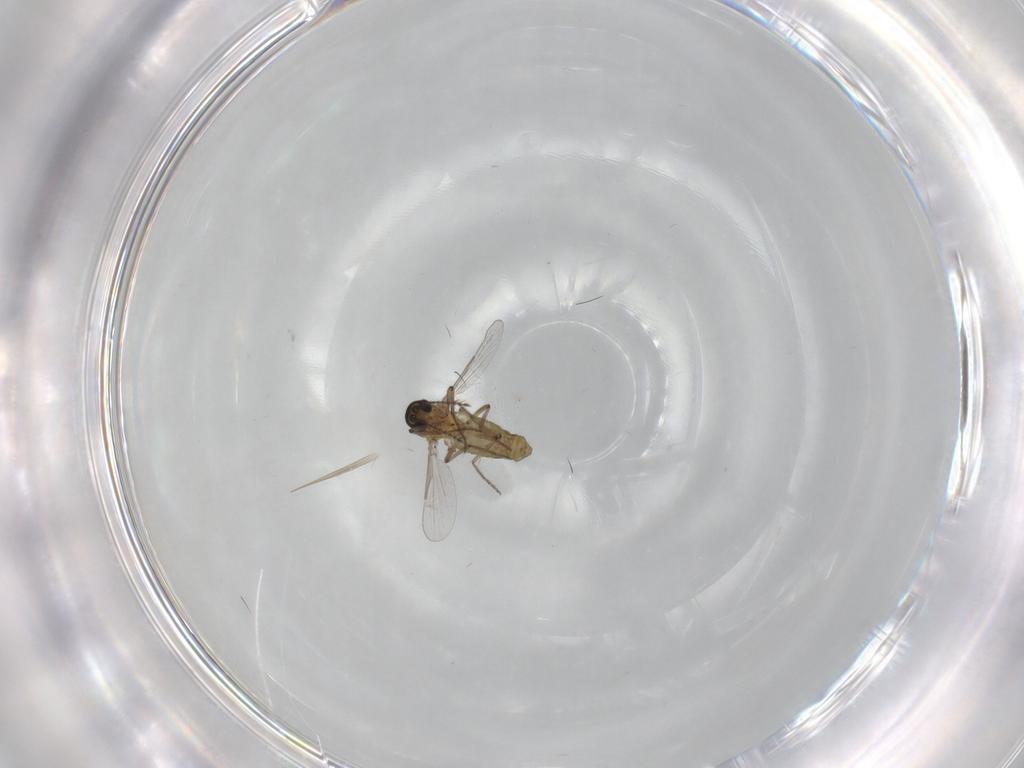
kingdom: Animalia
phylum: Arthropoda
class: Insecta
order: Diptera
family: Ceratopogonidae
